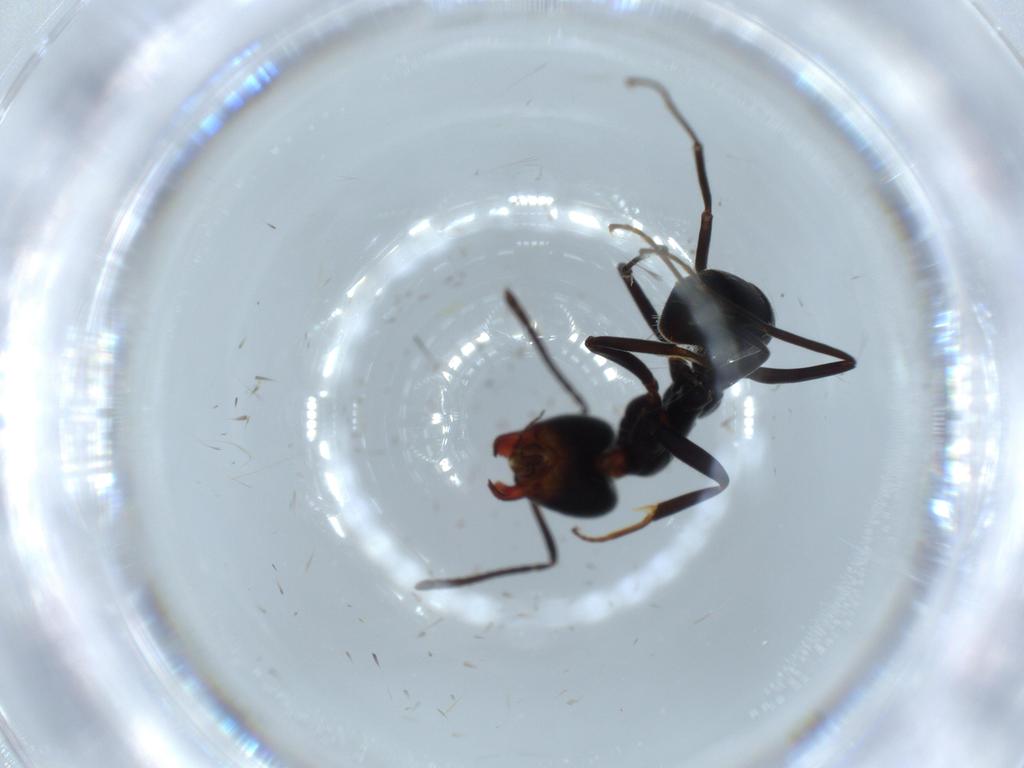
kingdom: Animalia
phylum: Arthropoda
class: Insecta
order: Hymenoptera
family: Formicidae
